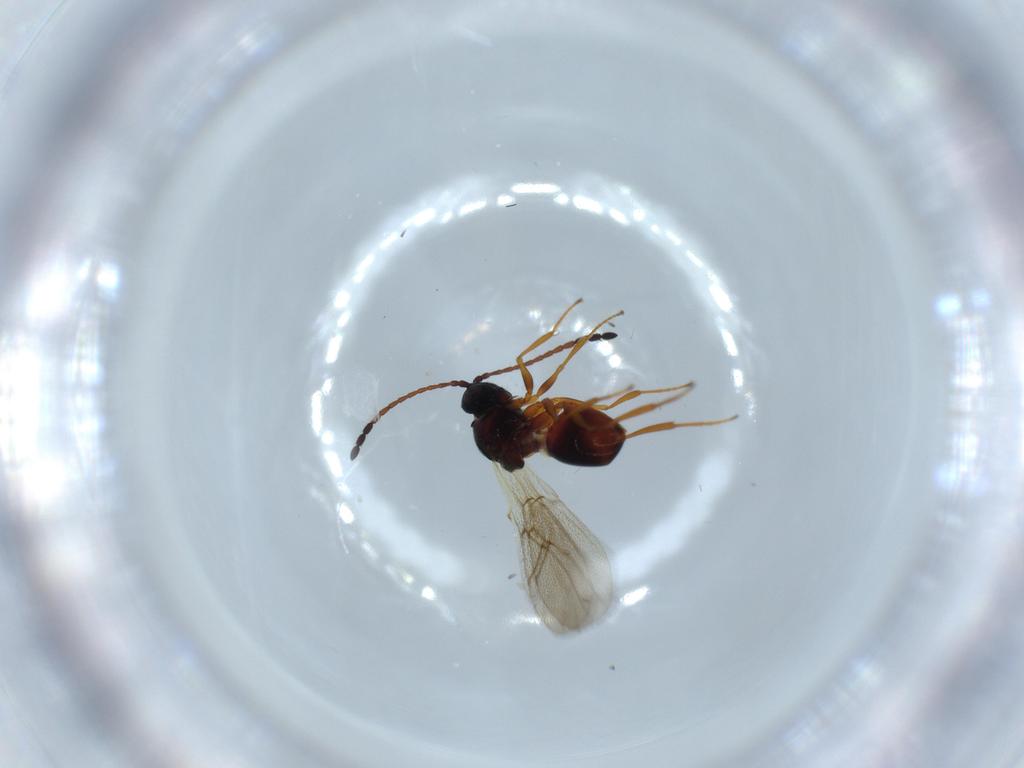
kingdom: Animalia
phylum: Arthropoda
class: Insecta
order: Hymenoptera
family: Figitidae
